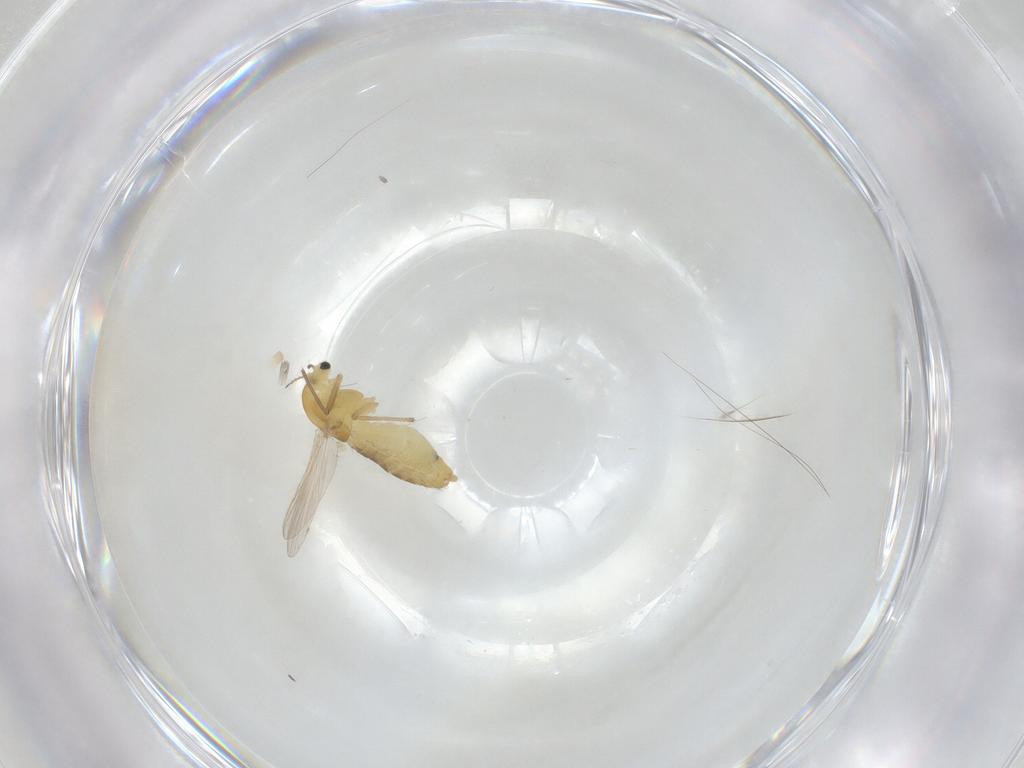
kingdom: Animalia
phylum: Arthropoda
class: Insecta
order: Diptera
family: Chironomidae
